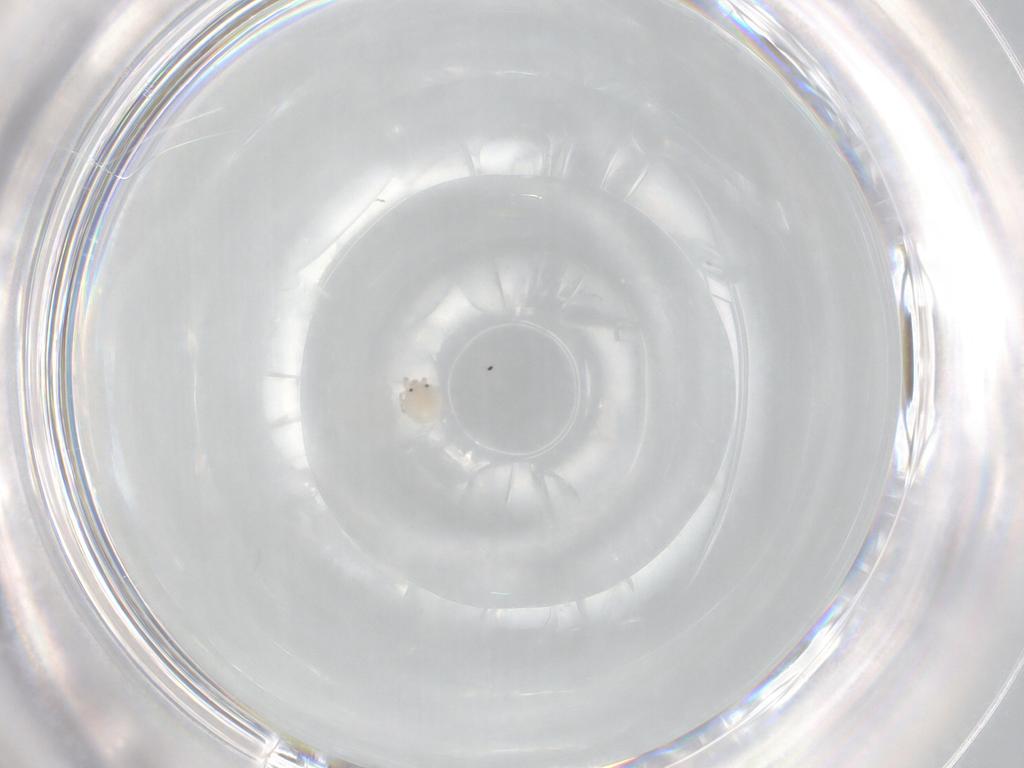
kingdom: Animalia
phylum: Arthropoda
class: Arachnida
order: Trombidiformes
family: Lebertiidae
